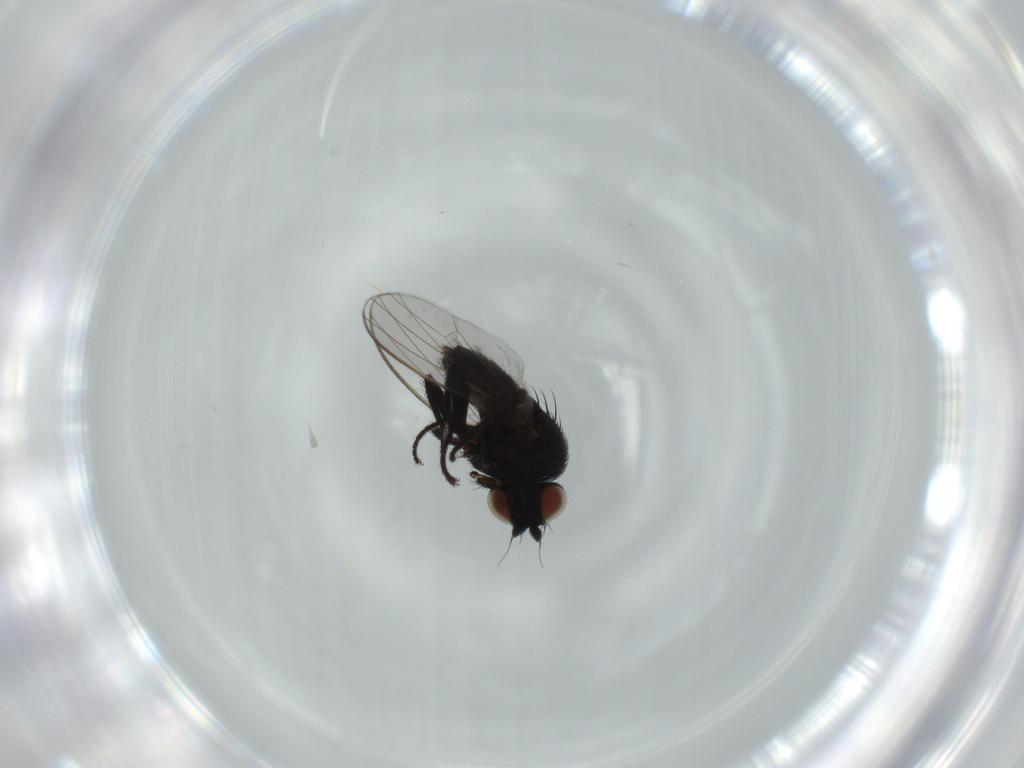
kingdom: Animalia
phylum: Arthropoda
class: Insecta
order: Diptera
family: Milichiidae
